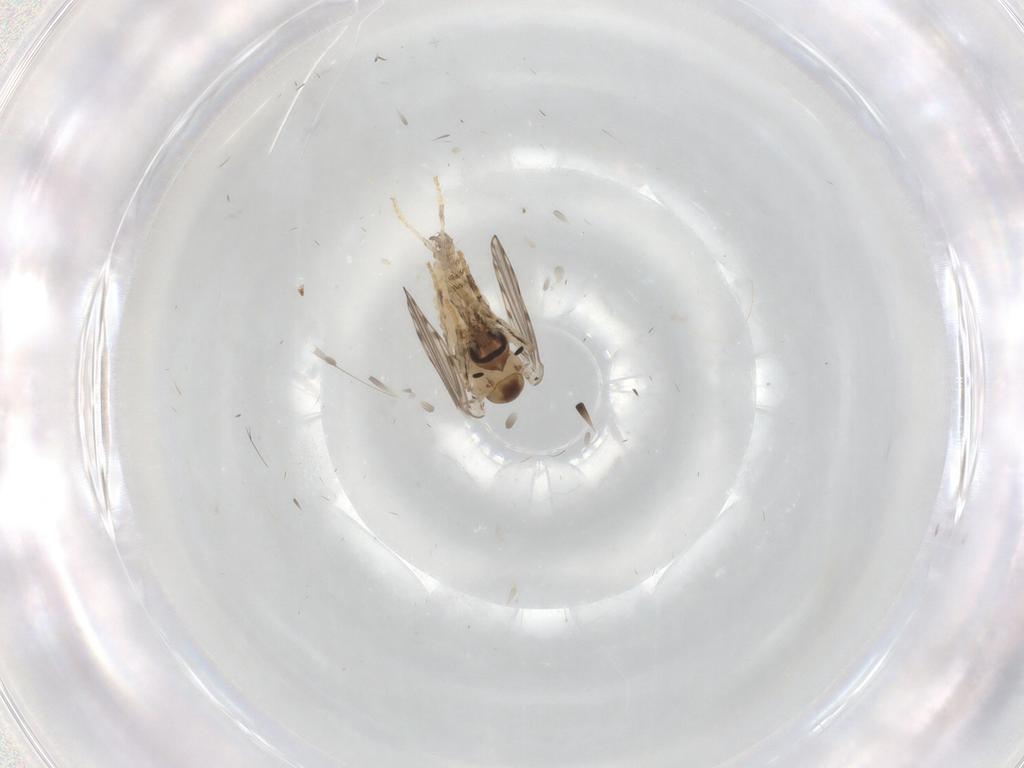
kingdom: Animalia
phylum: Arthropoda
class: Insecta
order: Diptera
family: Psychodidae
